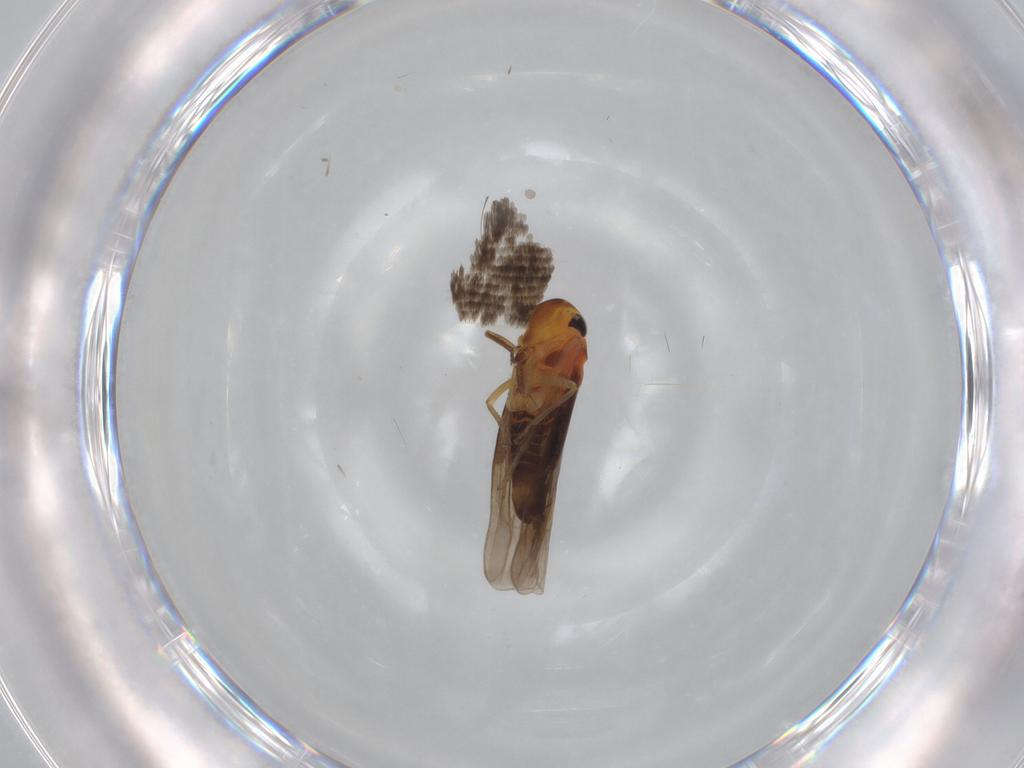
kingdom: Animalia
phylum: Arthropoda
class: Insecta
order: Hemiptera
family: Cicadellidae
